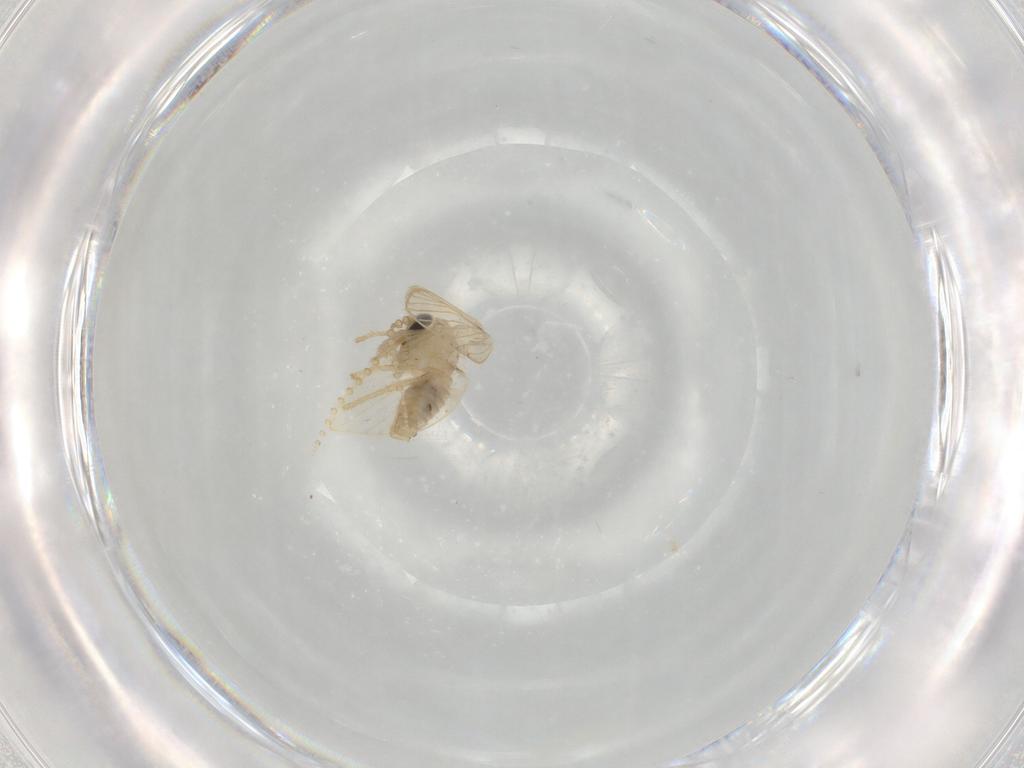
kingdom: Animalia
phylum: Arthropoda
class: Insecta
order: Diptera
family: Psychodidae
